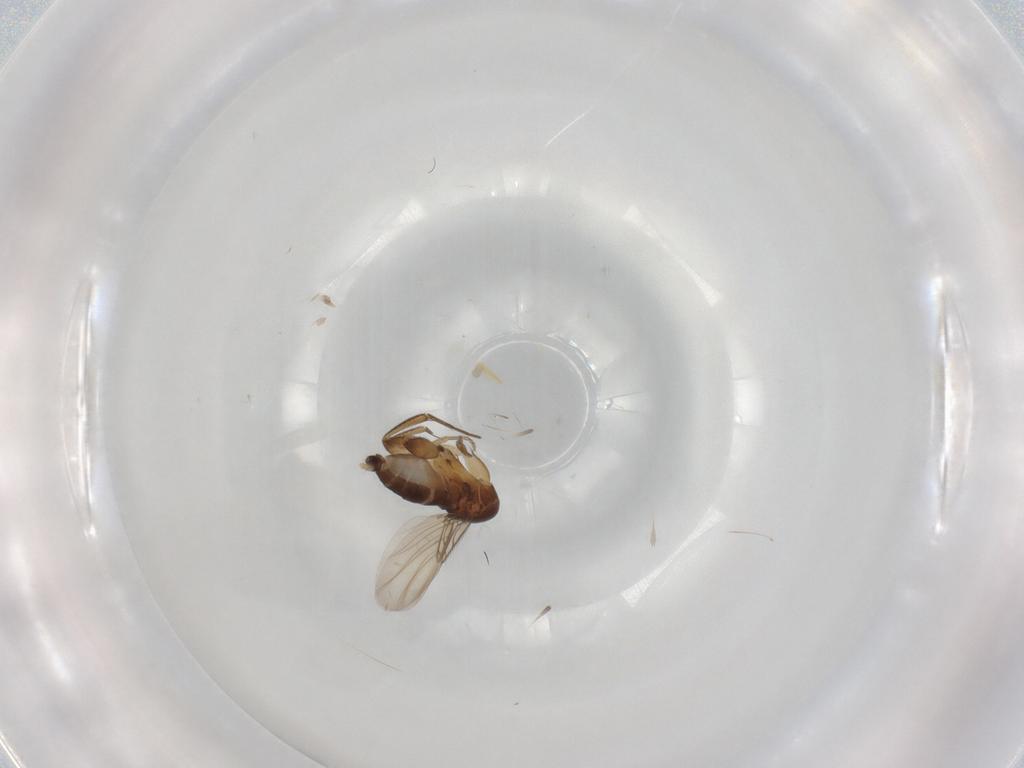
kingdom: Animalia
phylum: Arthropoda
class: Insecta
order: Diptera
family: Phoridae
